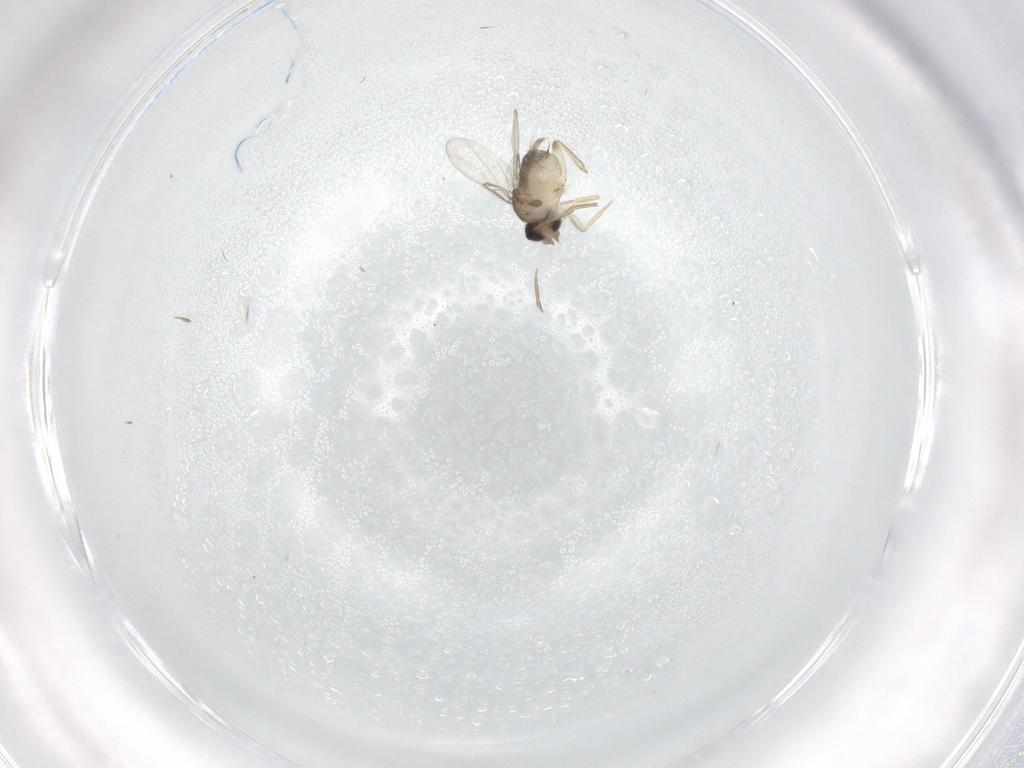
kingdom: Animalia
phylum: Arthropoda
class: Insecta
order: Diptera
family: Phoridae
